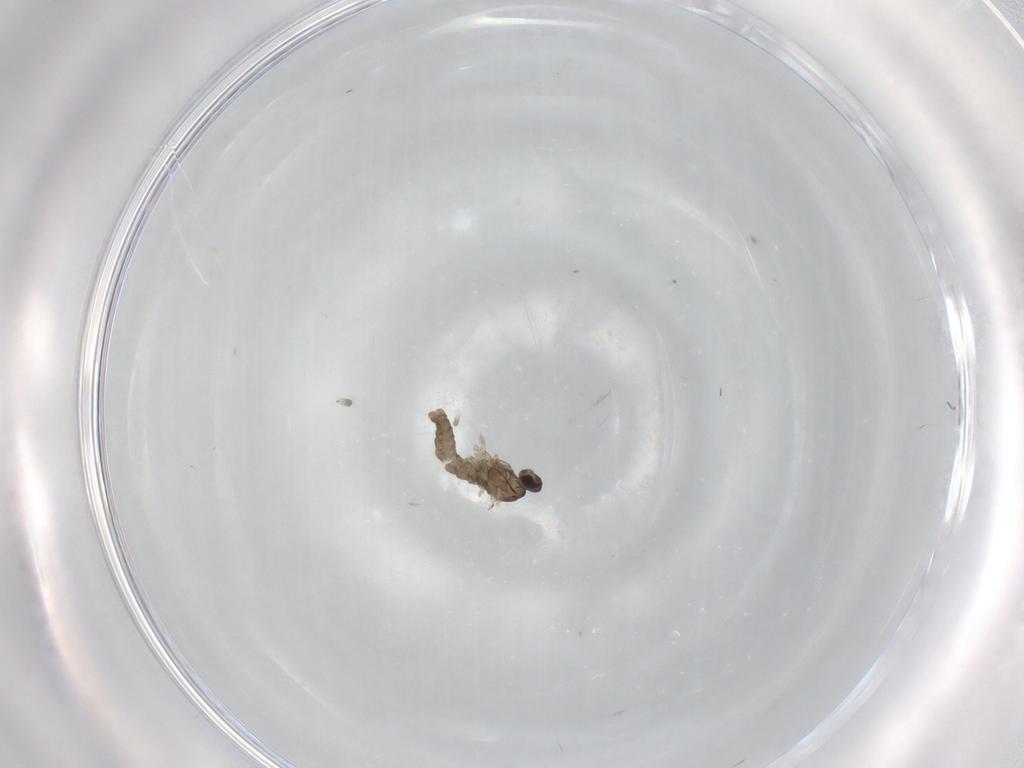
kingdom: Animalia
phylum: Arthropoda
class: Insecta
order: Diptera
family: Cecidomyiidae
